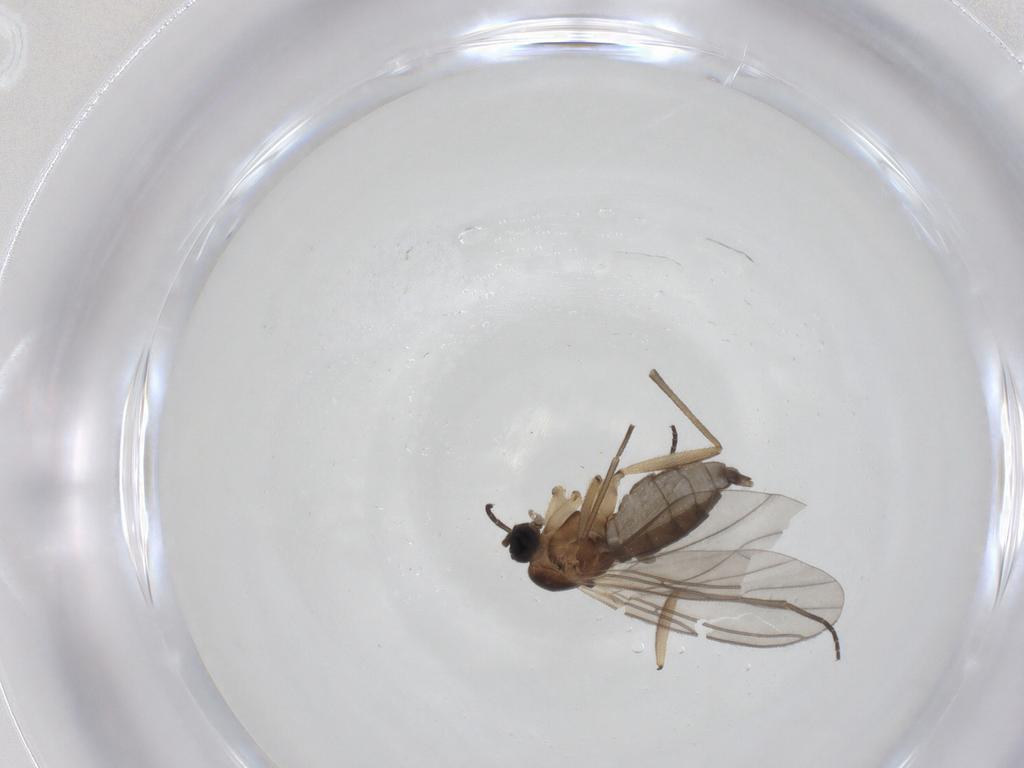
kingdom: Animalia
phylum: Arthropoda
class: Insecta
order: Diptera
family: Sciaridae
